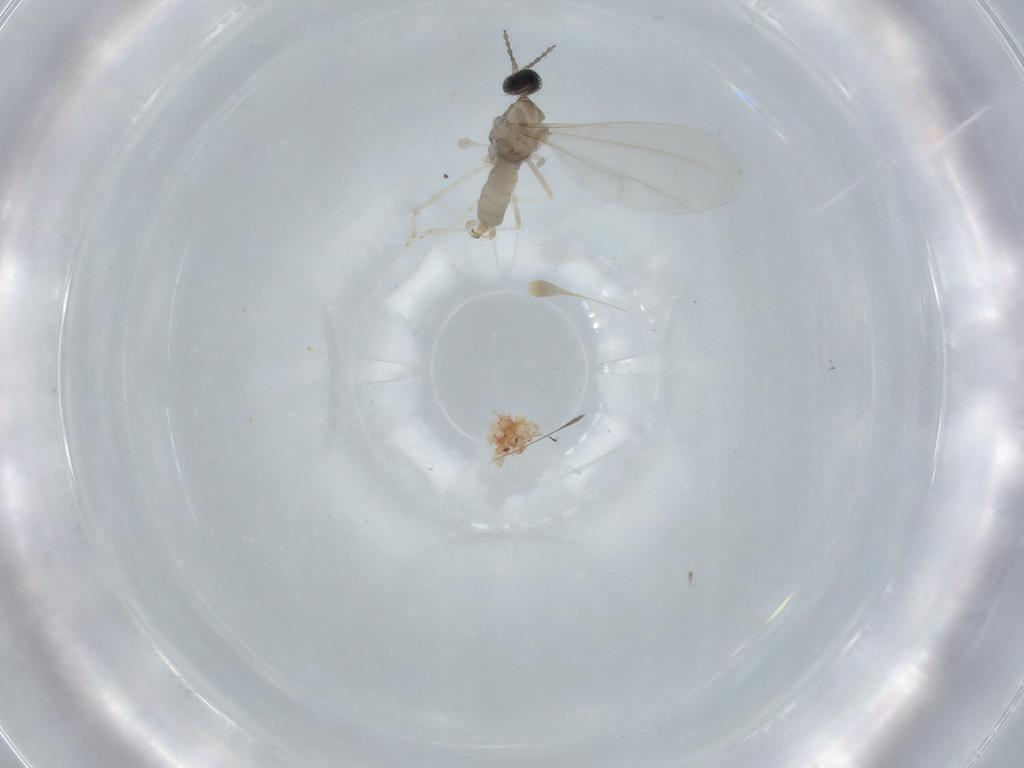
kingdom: Animalia
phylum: Arthropoda
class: Insecta
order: Diptera
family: Cecidomyiidae
